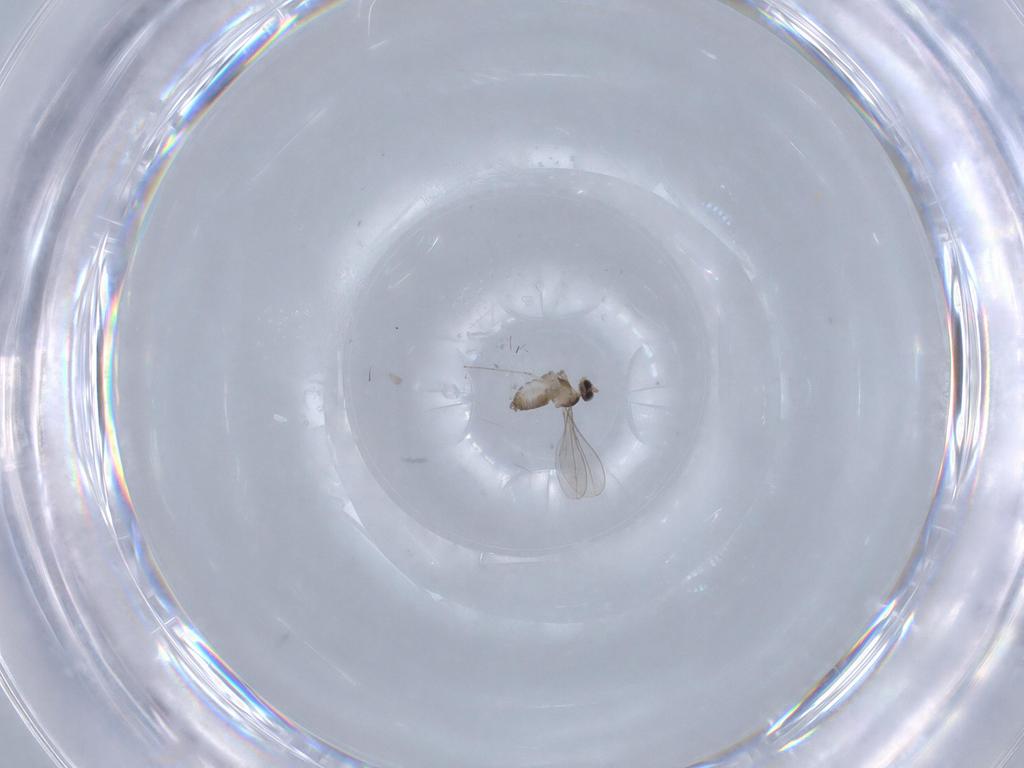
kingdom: Animalia
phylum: Arthropoda
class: Insecta
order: Diptera
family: Cecidomyiidae
